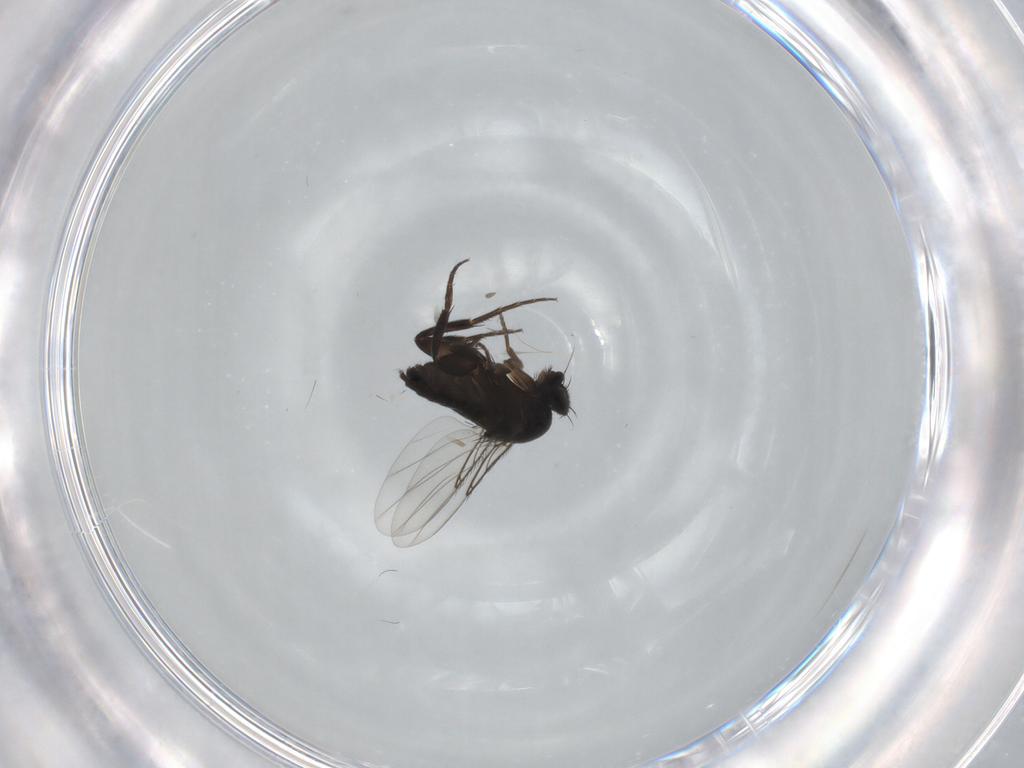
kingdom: Animalia
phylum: Arthropoda
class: Insecta
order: Diptera
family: Phoridae
